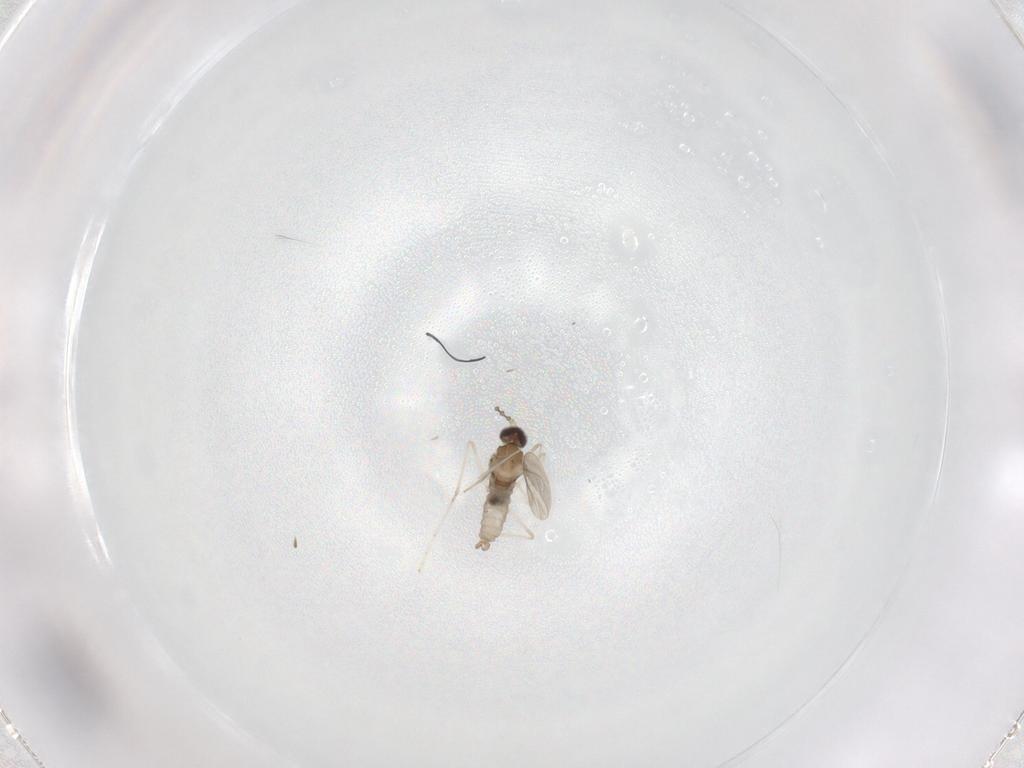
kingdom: Animalia
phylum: Arthropoda
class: Insecta
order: Diptera
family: Cecidomyiidae
